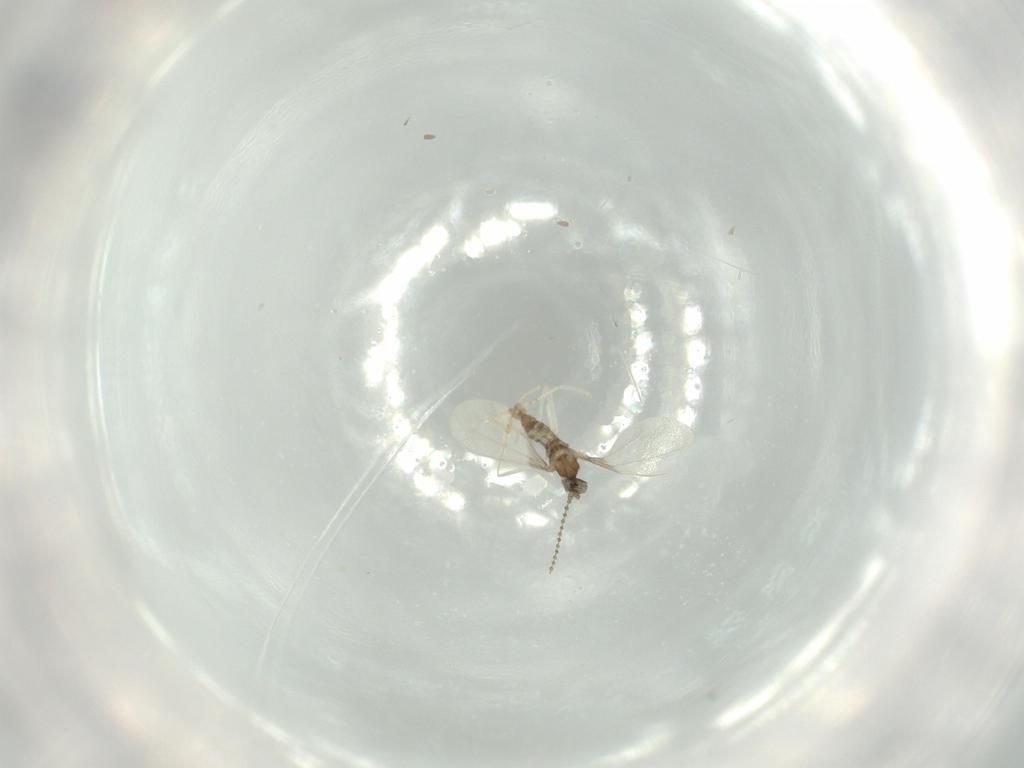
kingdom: Animalia
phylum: Arthropoda
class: Insecta
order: Diptera
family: Cecidomyiidae
